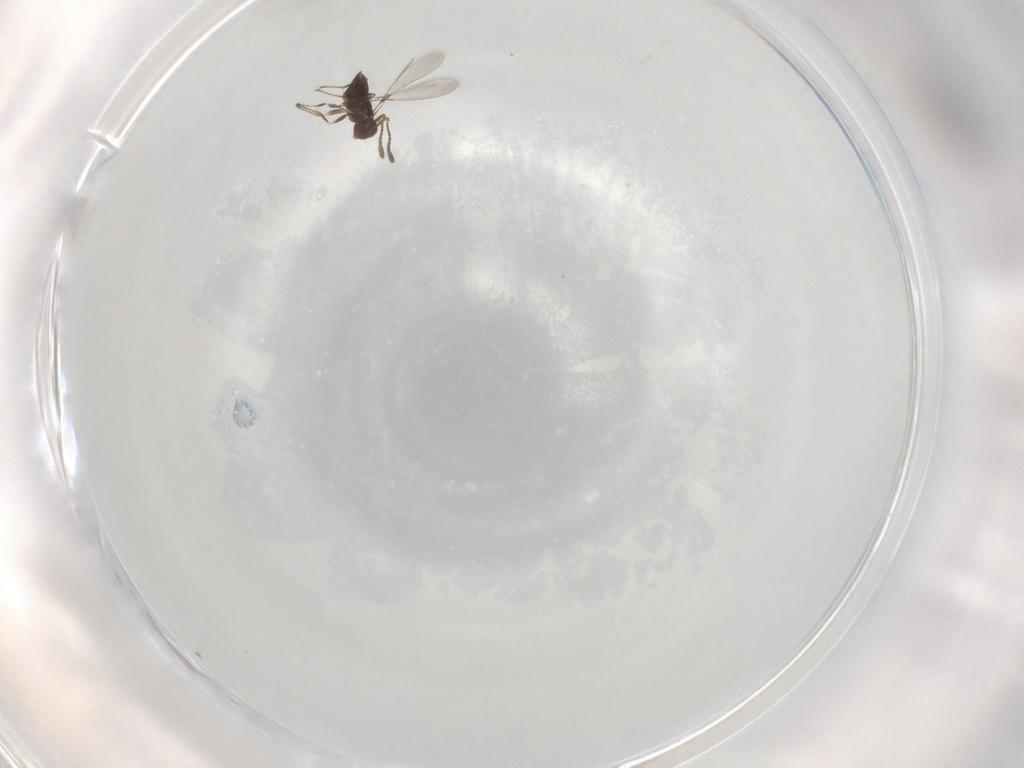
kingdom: Animalia
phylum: Arthropoda
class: Insecta
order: Hymenoptera
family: Mymaridae
